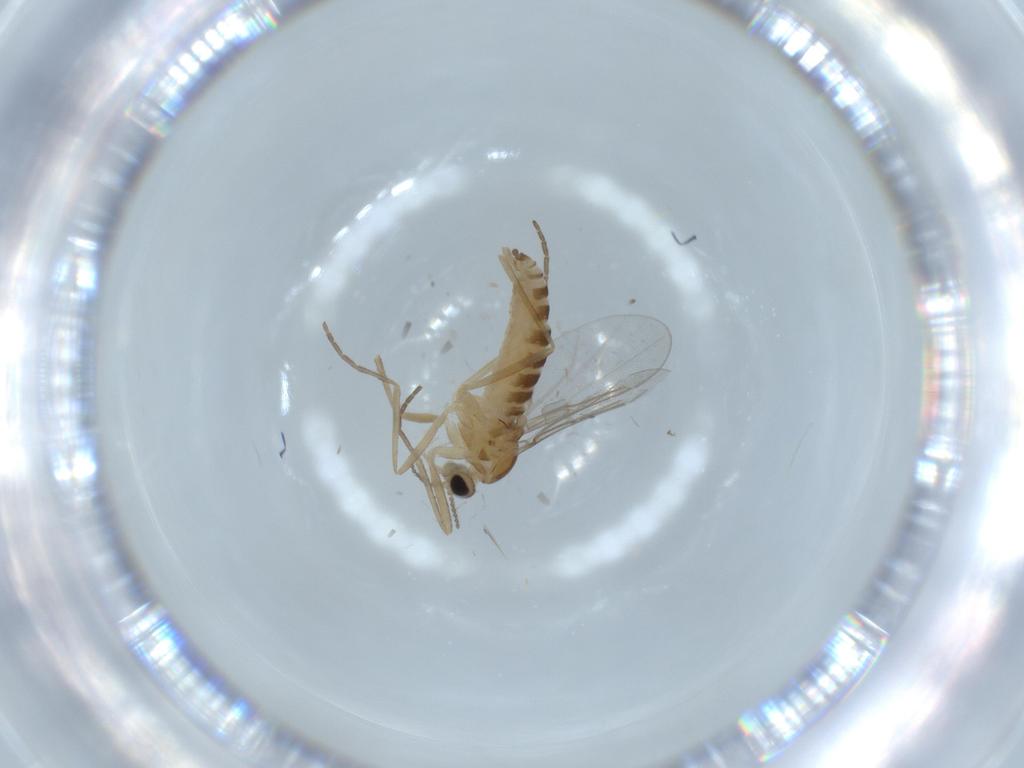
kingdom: Animalia
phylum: Arthropoda
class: Insecta
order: Diptera
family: Cecidomyiidae
